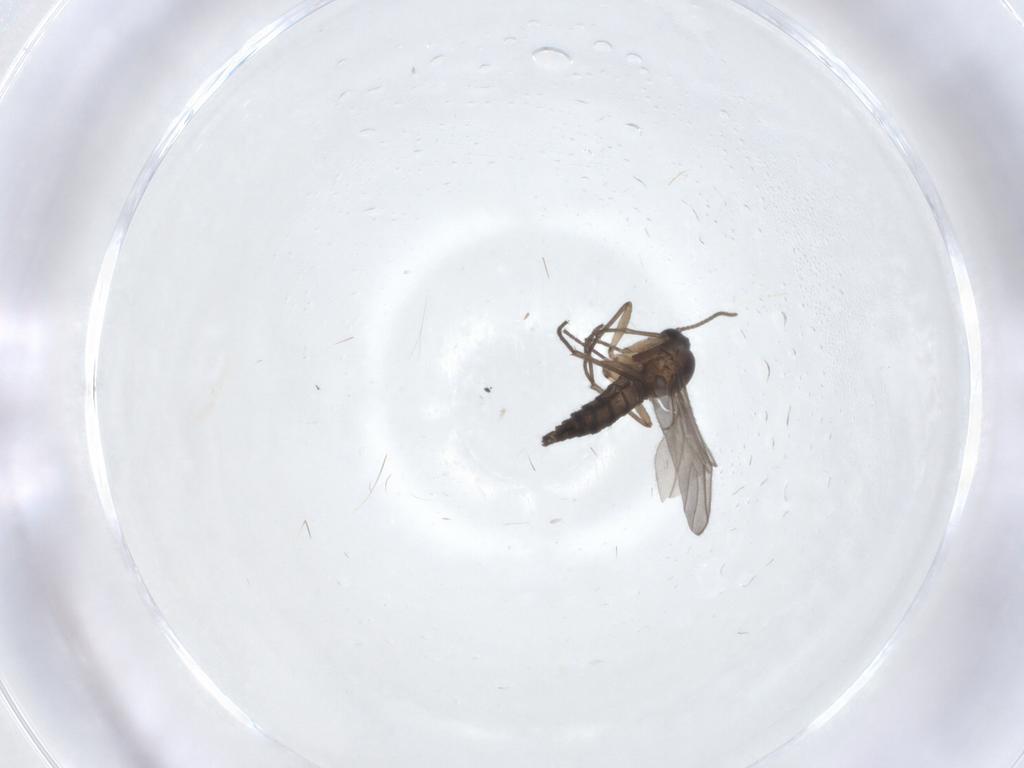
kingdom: Animalia
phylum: Arthropoda
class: Insecta
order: Diptera
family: Sciaridae
